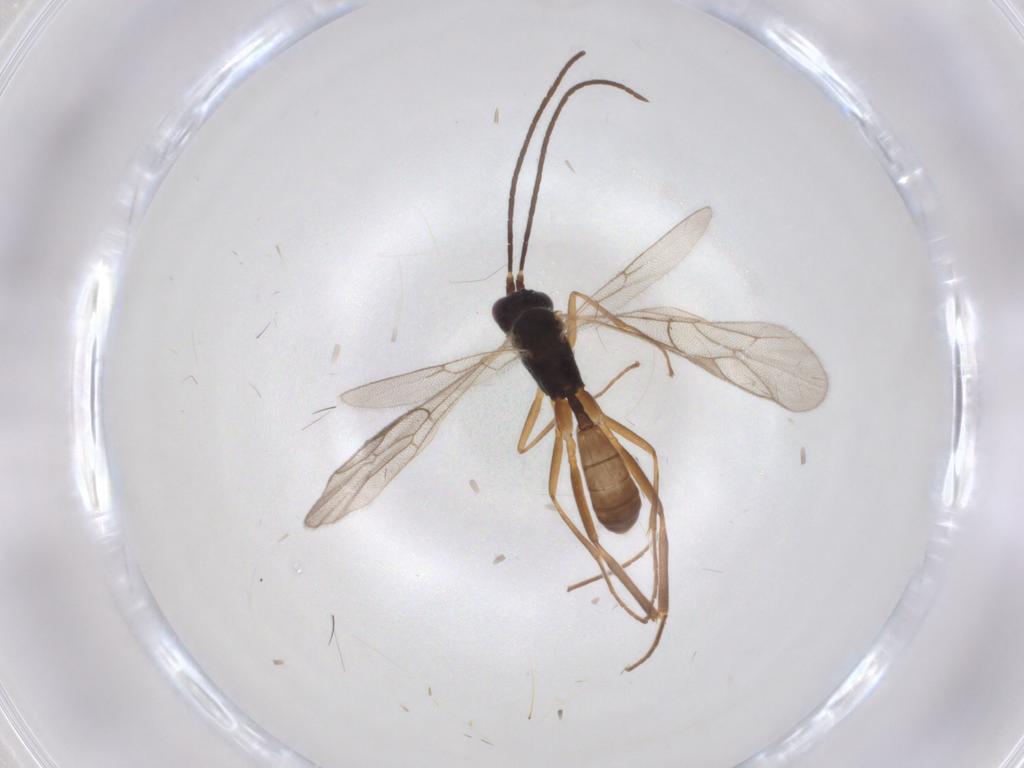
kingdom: Animalia
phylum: Arthropoda
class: Insecta
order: Hymenoptera
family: Ichneumonidae
